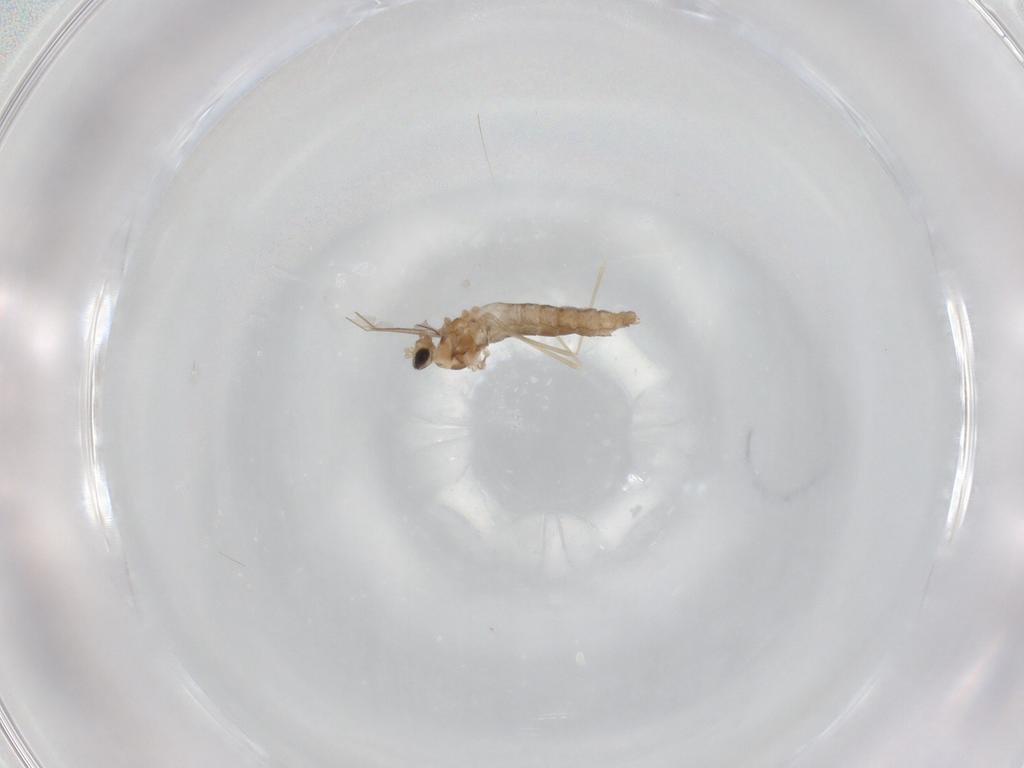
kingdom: Animalia
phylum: Arthropoda
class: Insecta
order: Diptera
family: Cecidomyiidae
